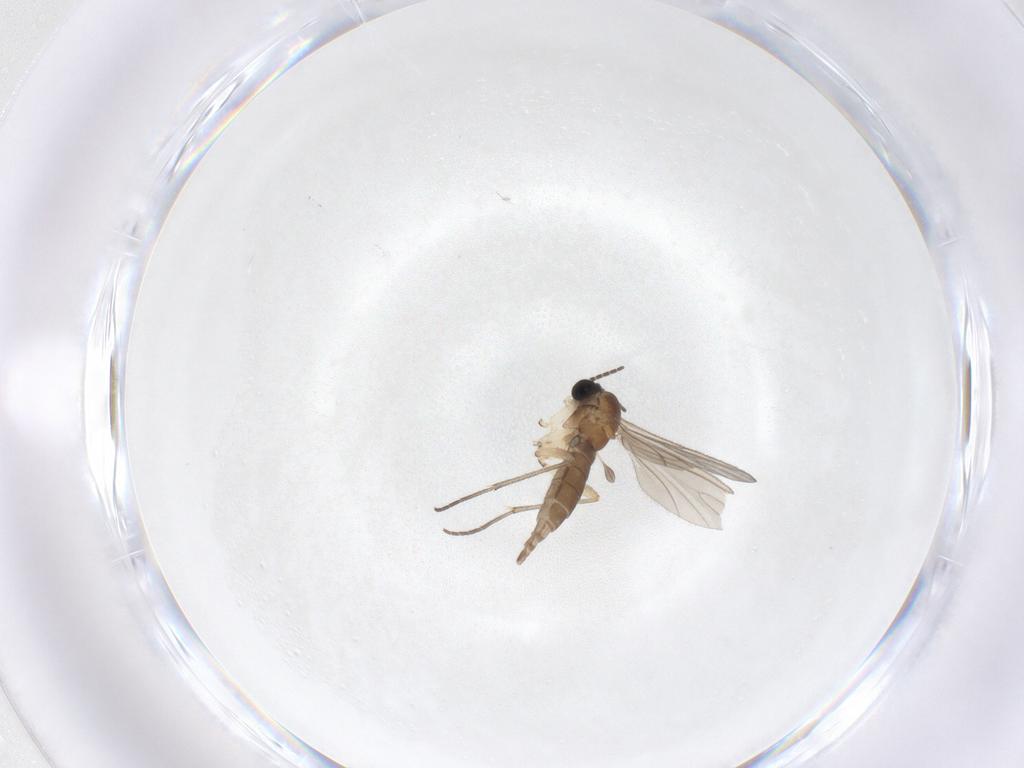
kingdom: Animalia
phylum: Arthropoda
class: Insecta
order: Diptera
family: Sciaridae
